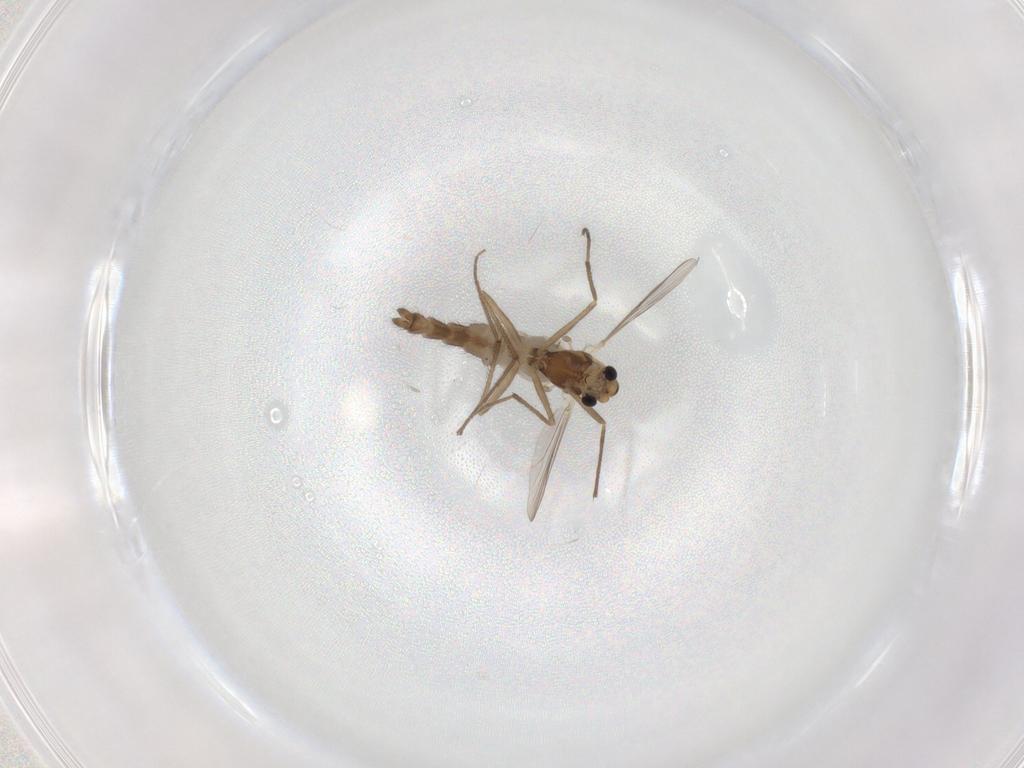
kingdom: Animalia
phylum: Arthropoda
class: Insecta
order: Diptera
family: Chironomidae
